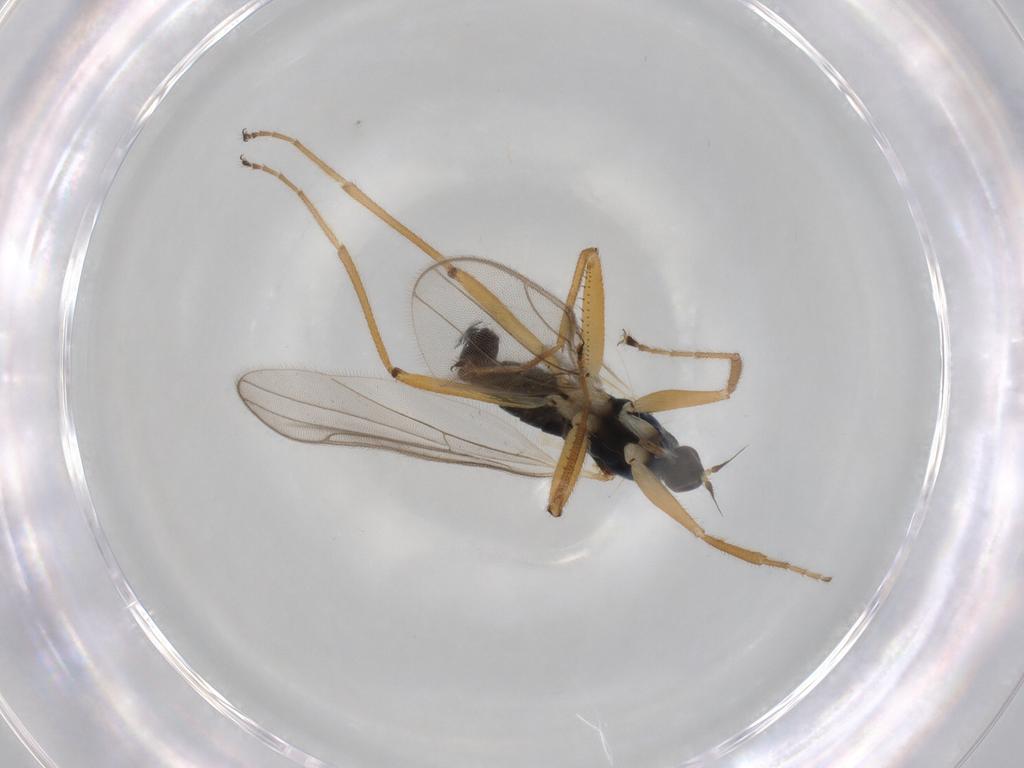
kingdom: Animalia
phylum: Arthropoda
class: Insecta
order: Diptera
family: Hybotidae
